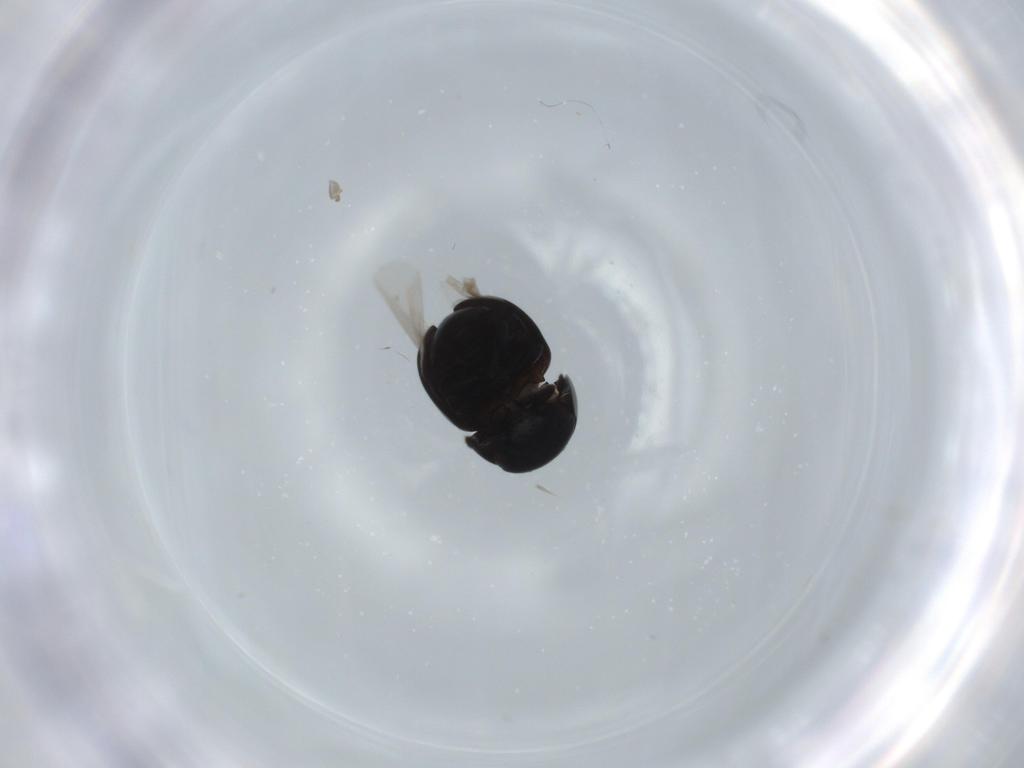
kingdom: Animalia
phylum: Arthropoda
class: Insecta
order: Coleoptera
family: Cybocephalidae
